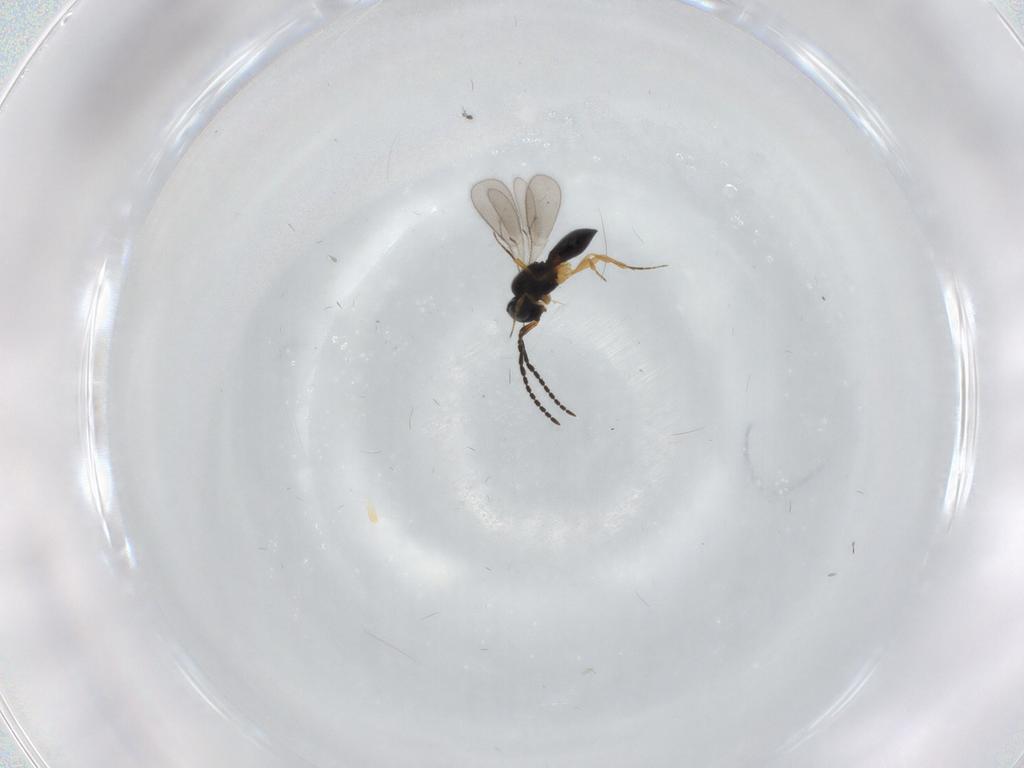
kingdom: Animalia
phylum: Arthropoda
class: Insecta
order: Hymenoptera
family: Scelionidae
